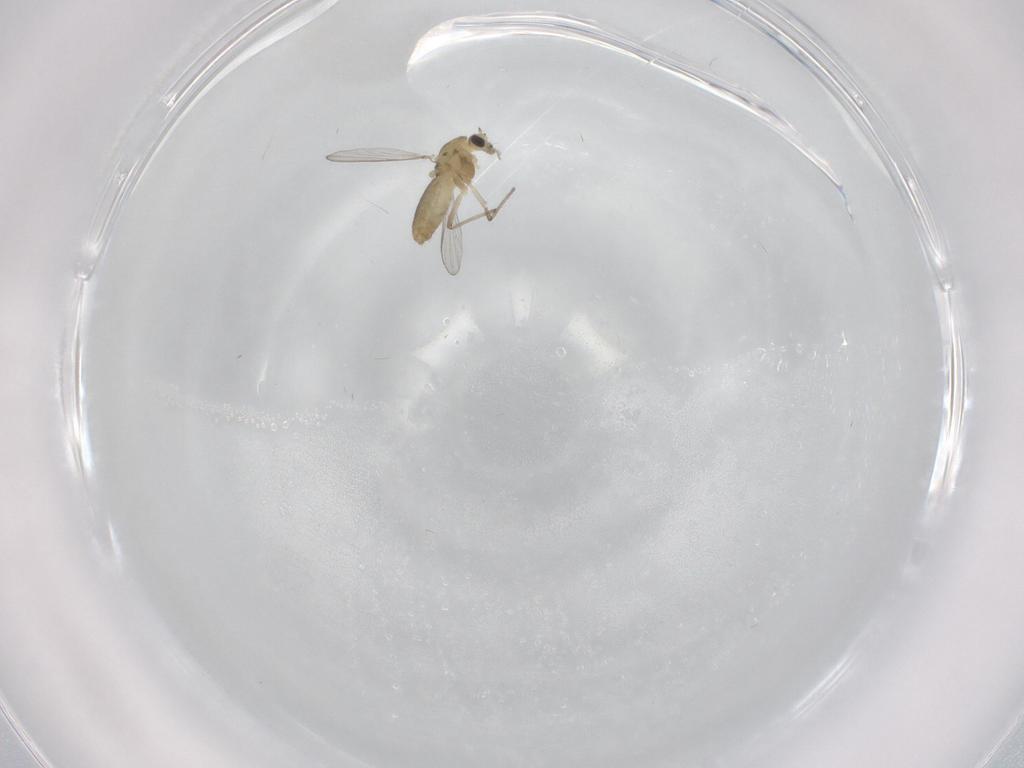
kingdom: Animalia
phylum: Arthropoda
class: Insecta
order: Diptera
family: Chironomidae
